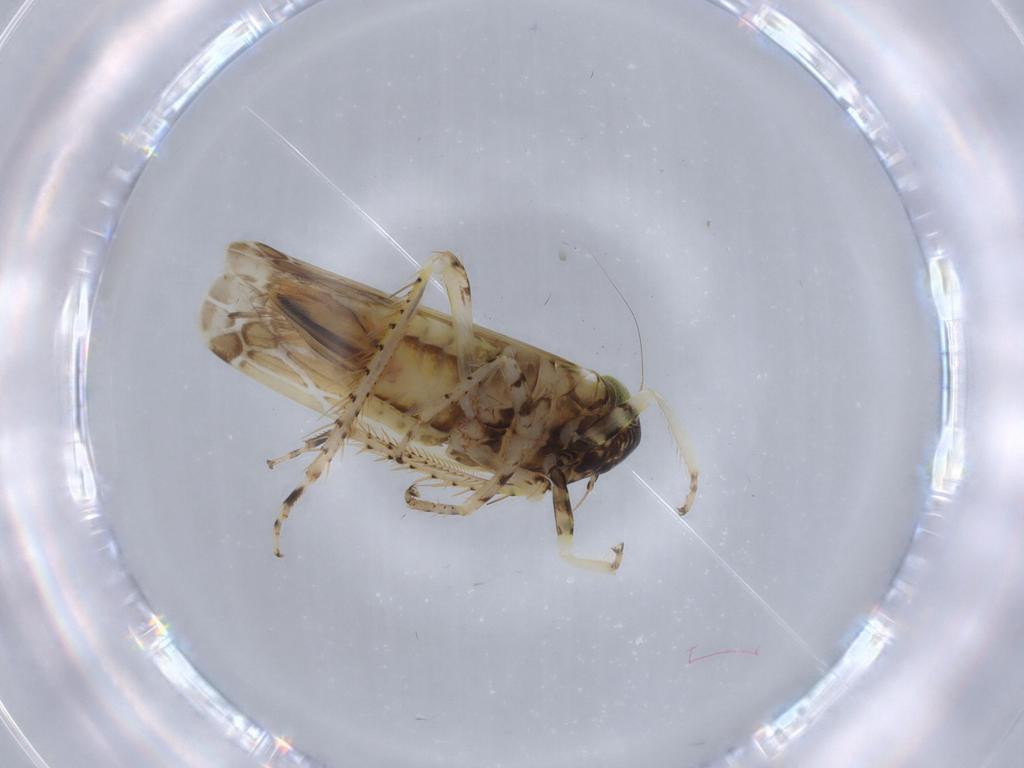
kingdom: Animalia
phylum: Arthropoda
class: Insecta
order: Hemiptera
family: Cicadellidae
